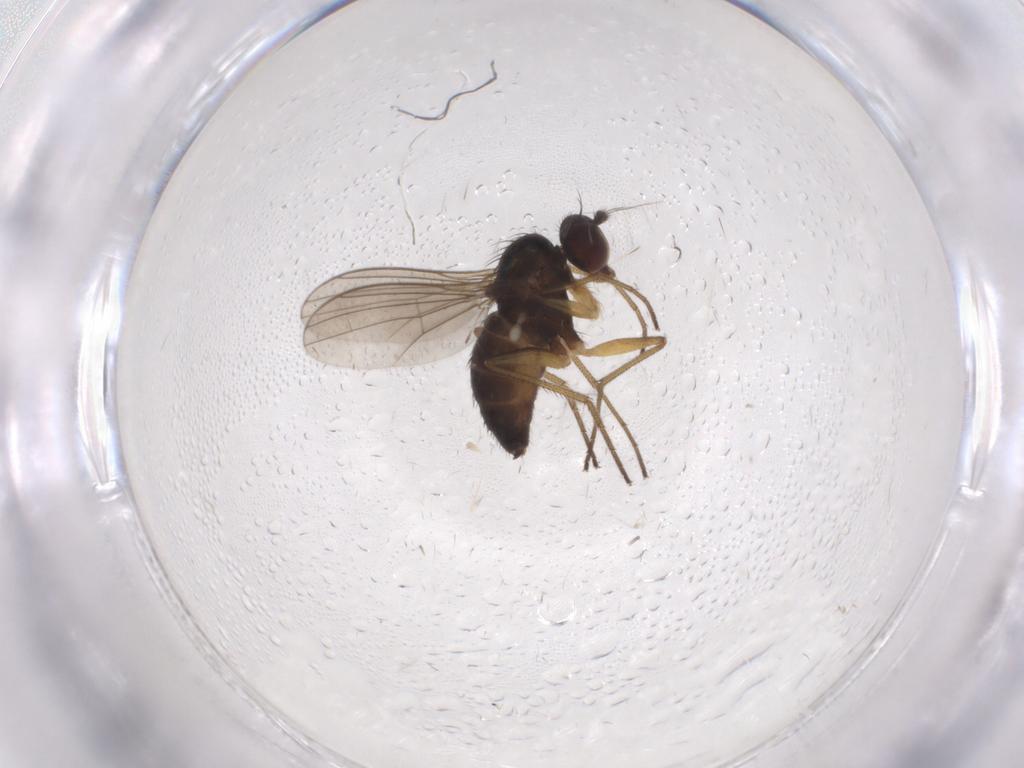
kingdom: Animalia
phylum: Arthropoda
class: Insecta
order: Diptera
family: Dolichopodidae
